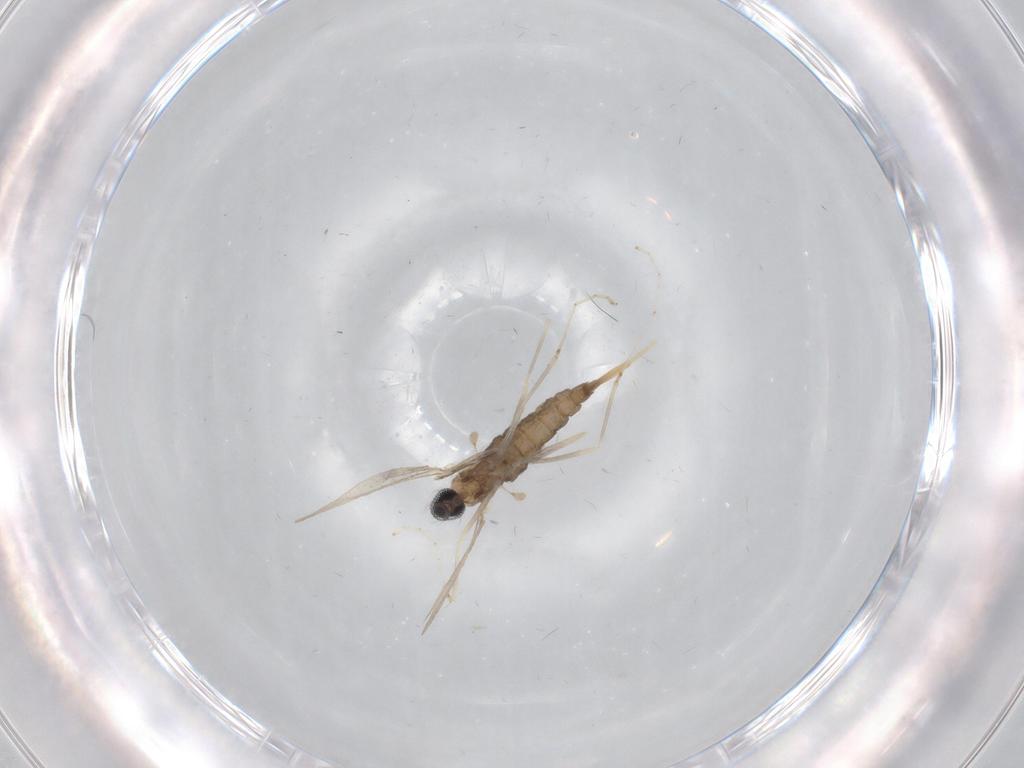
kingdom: Animalia
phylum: Arthropoda
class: Insecta
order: Diptera
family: Cecidomyiidae
